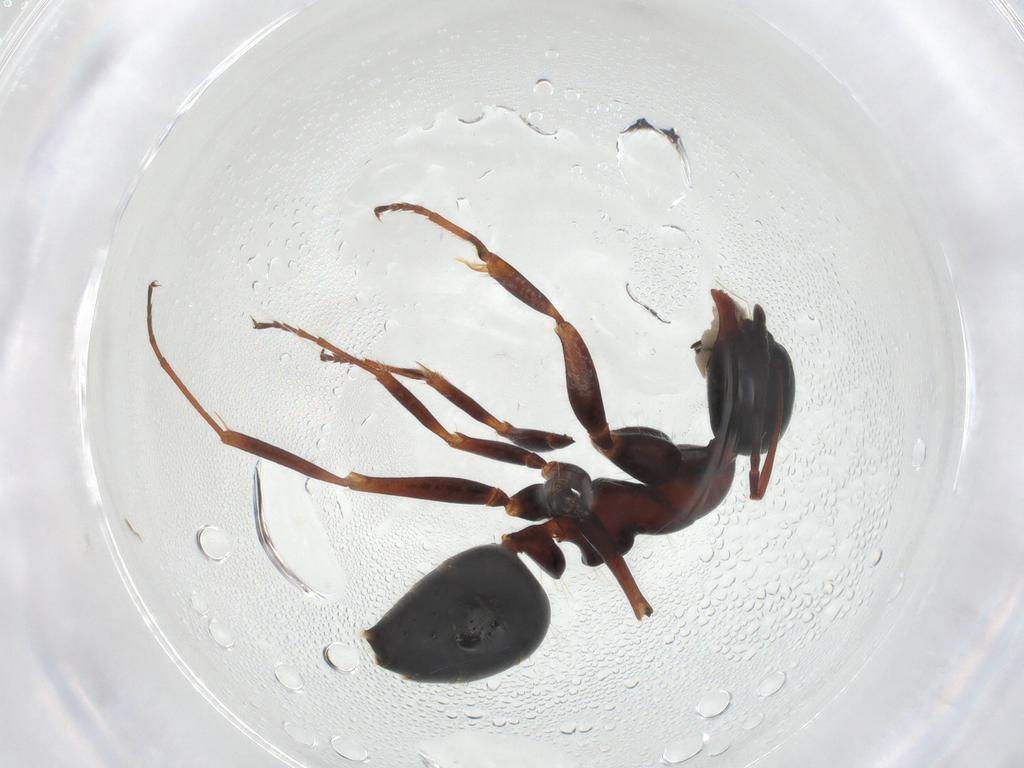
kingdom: Animalia
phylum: Arthropoda
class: Insecta
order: Hymenoptera
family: Formicidae
